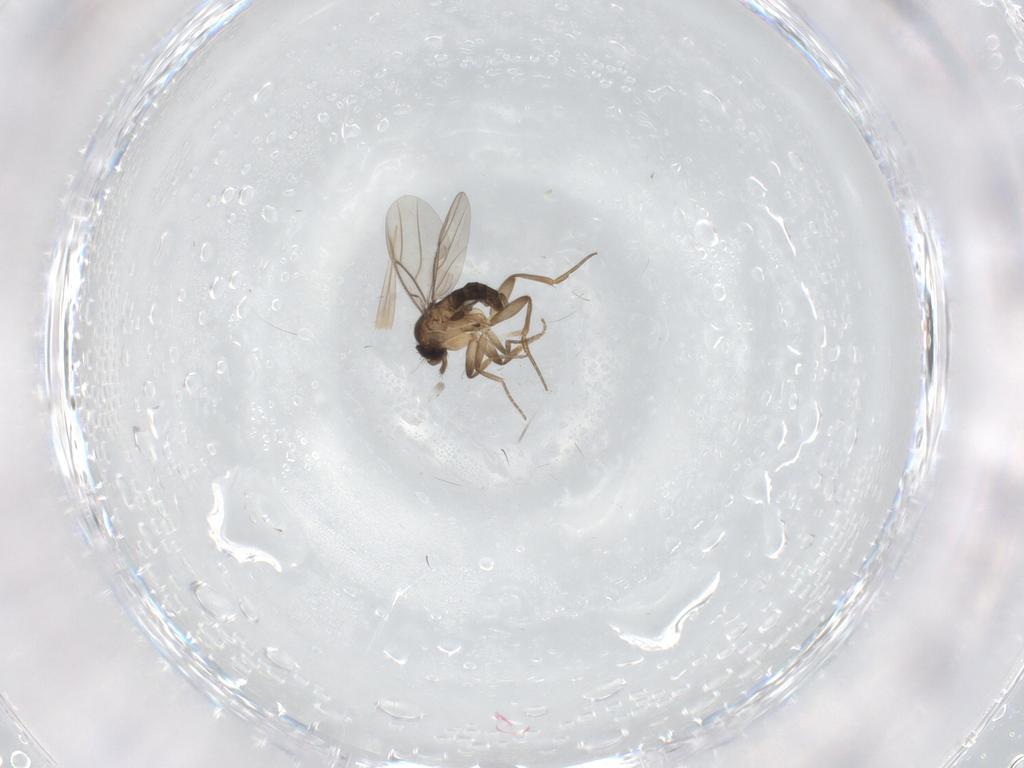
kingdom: Animalia
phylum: Arthropoda
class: Insecta
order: Diptera
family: Phoridae
